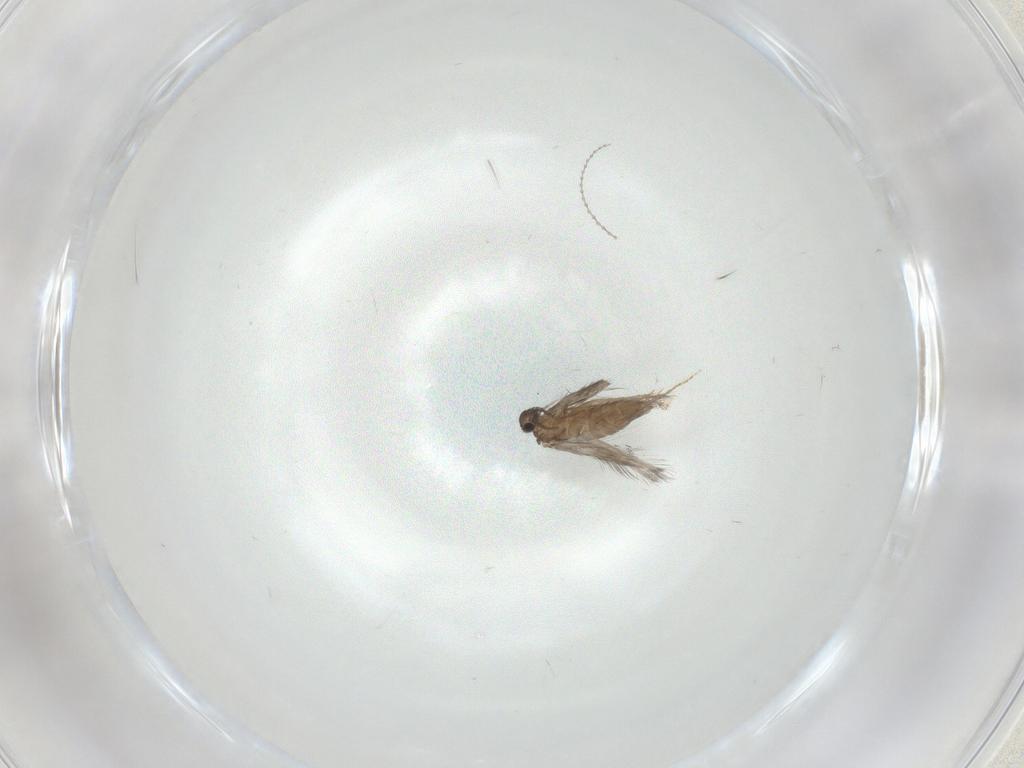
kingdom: Animalia
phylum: Arthropoda
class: Insecta
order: Trichoptera
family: Hydroptilidae
